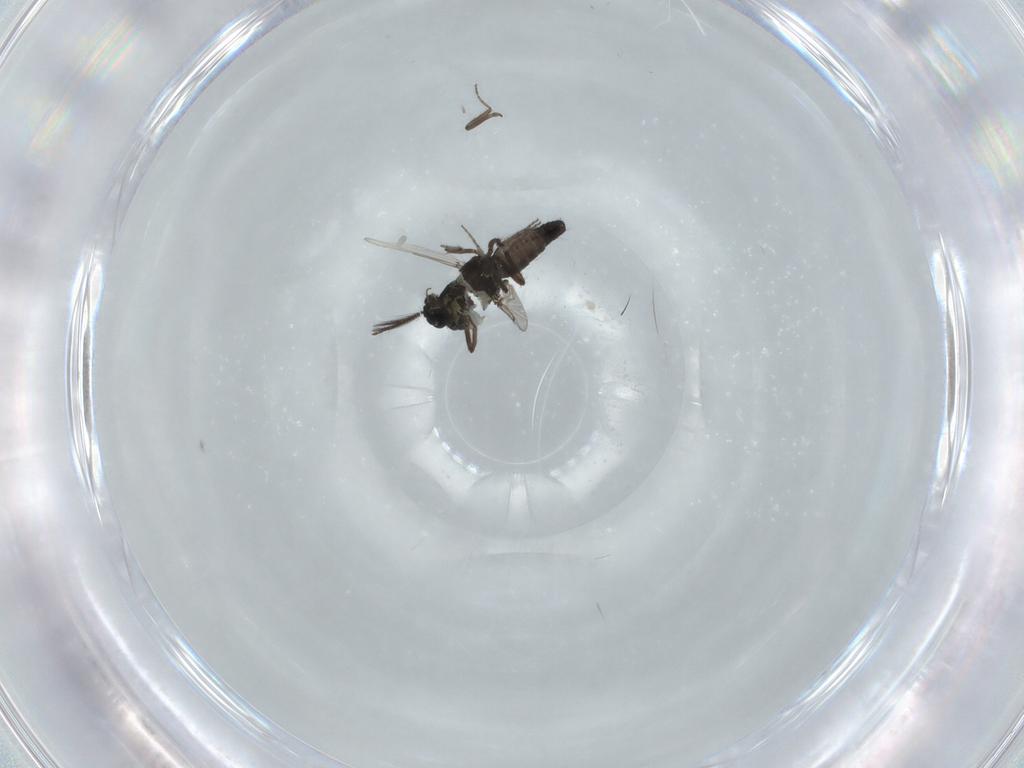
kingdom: Animalia
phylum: Arthropoda
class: Insecta
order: Diptera
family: Ceratopogonidae
